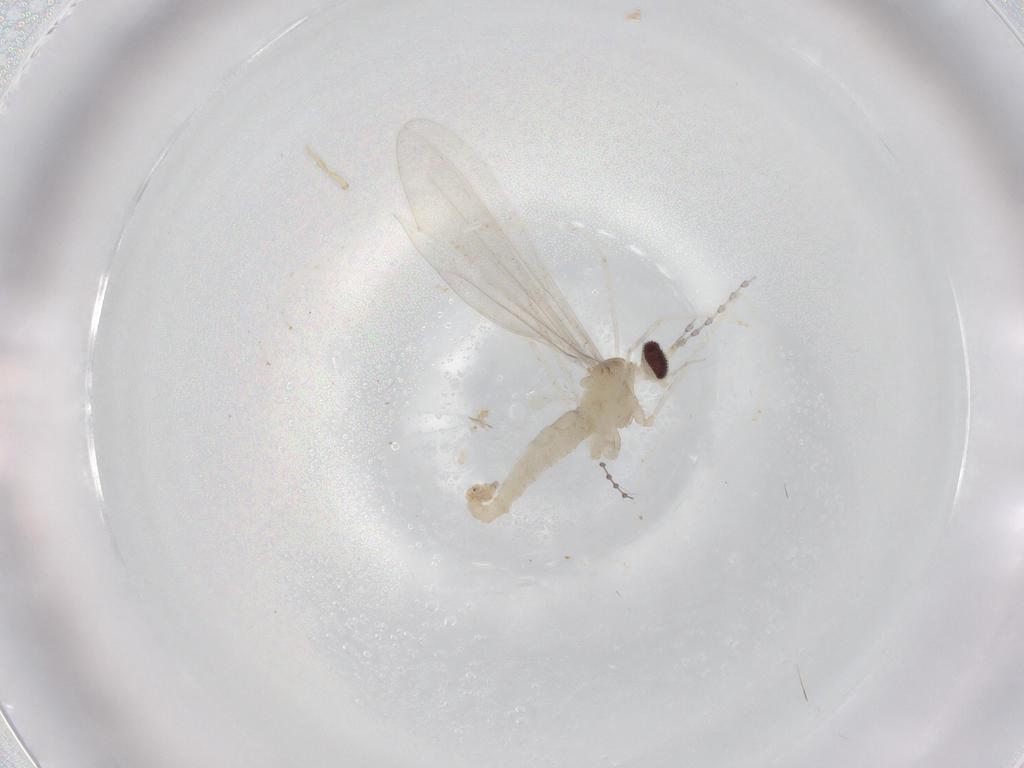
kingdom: Animalia
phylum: Arthropoda
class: Insecta
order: Diptera
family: Cecidomyiidae
